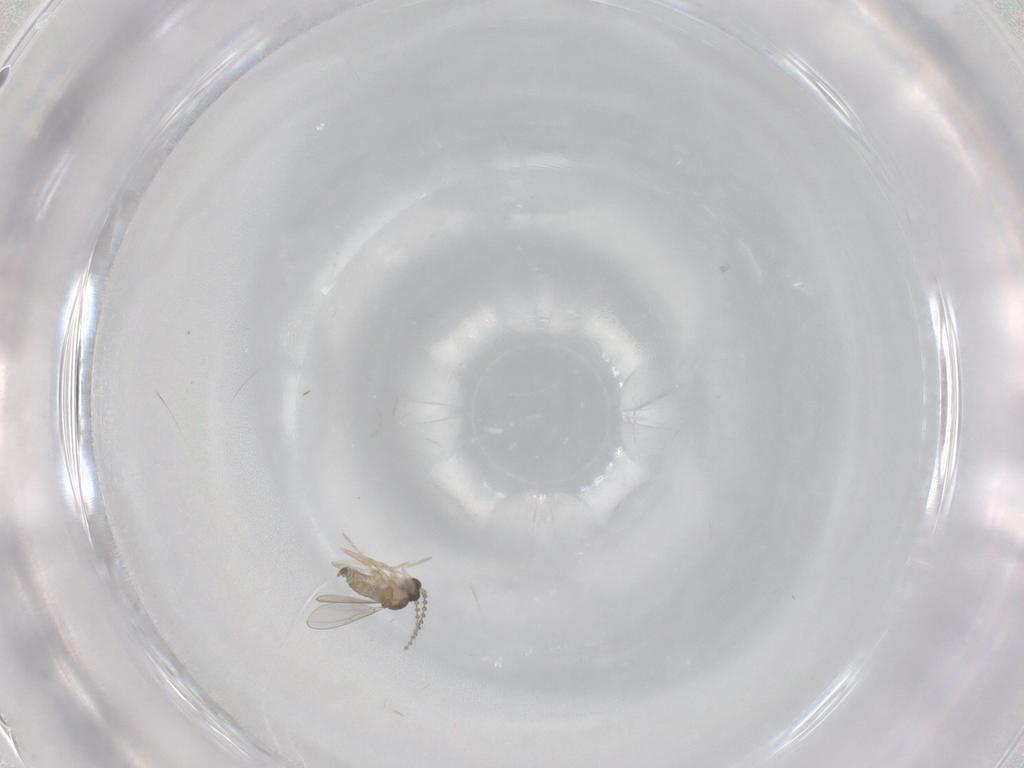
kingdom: Animalia
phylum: Arthropoda
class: Insecta
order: Diptera
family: Cecidomyiidae
